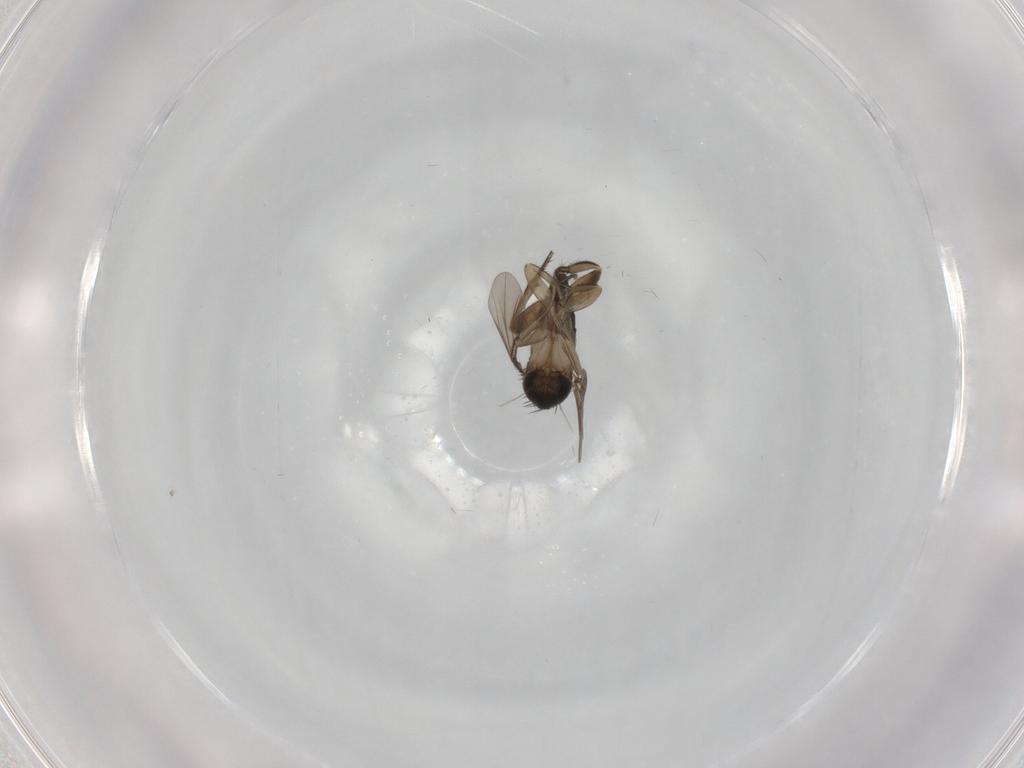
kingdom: Animalia
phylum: Arthropoda
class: Insecta
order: Diptera
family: Phoridae
